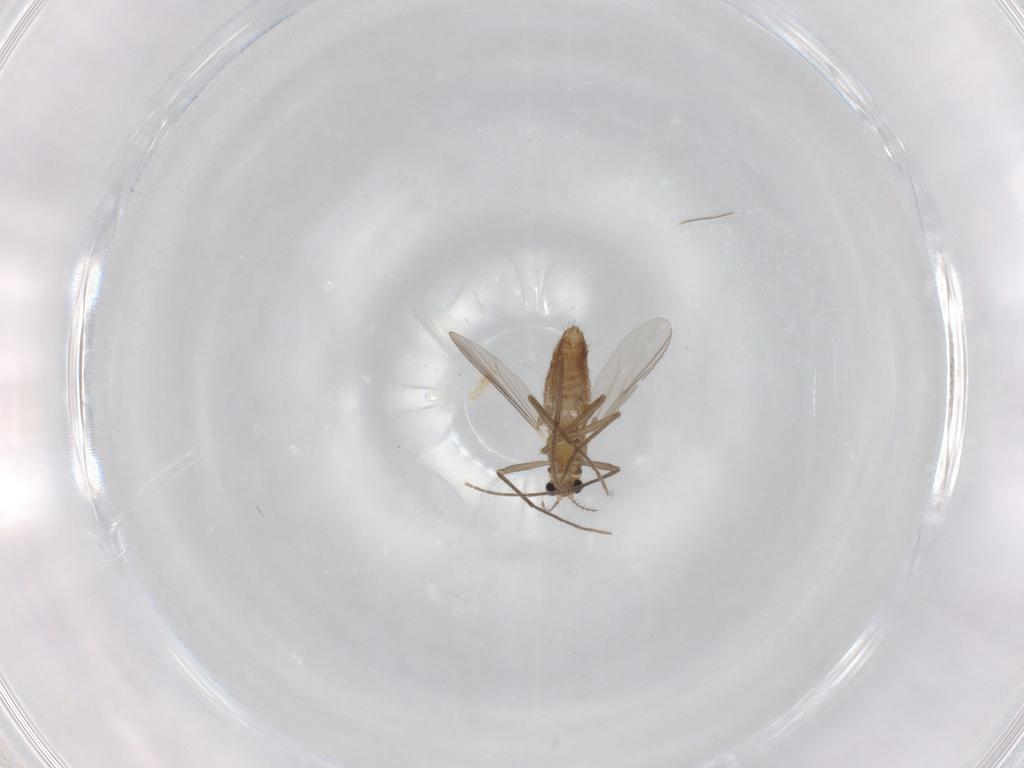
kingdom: Animalia
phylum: Arthropoda
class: Insecta
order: Diptera
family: Chironomidae
